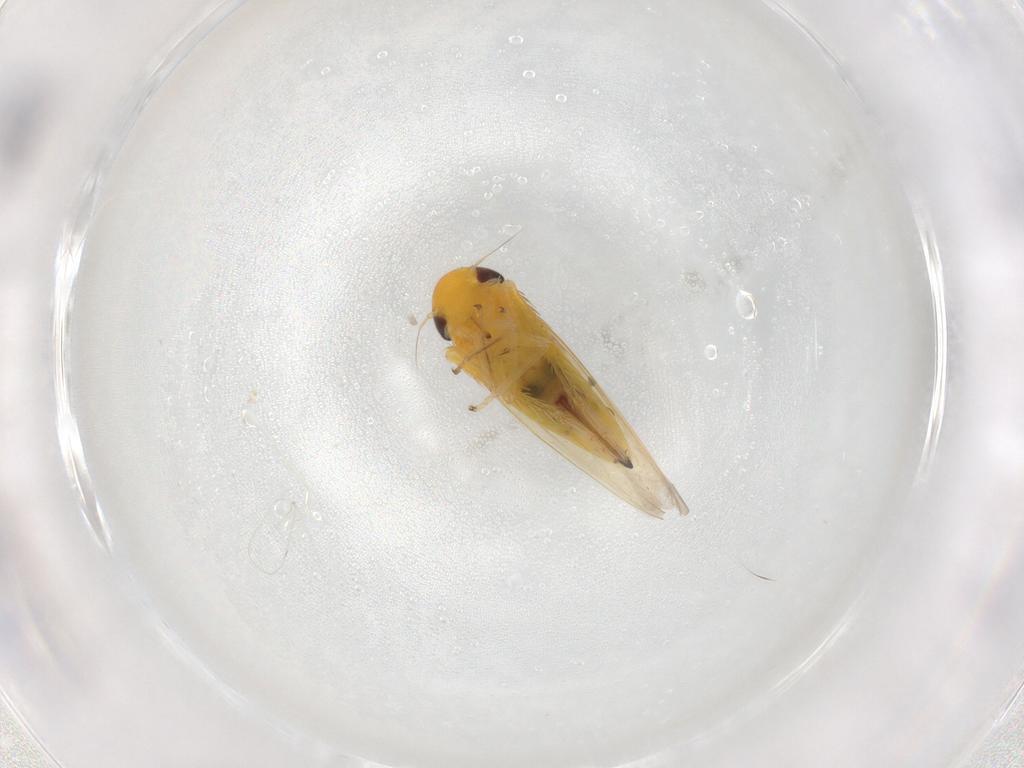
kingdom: Animalia
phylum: Arthropoda
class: Insecta
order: Hemiptera
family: Cicadellidae
